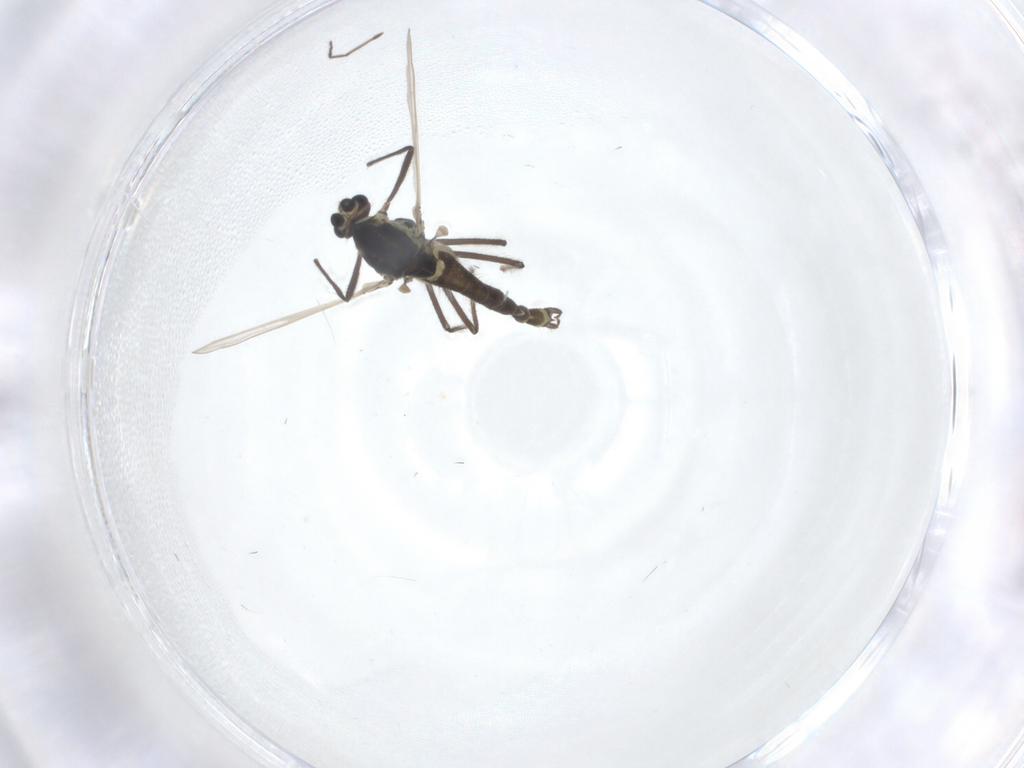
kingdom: Animalia
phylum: Arthropoda
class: Insecta
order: Diptera
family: Chironomidae
